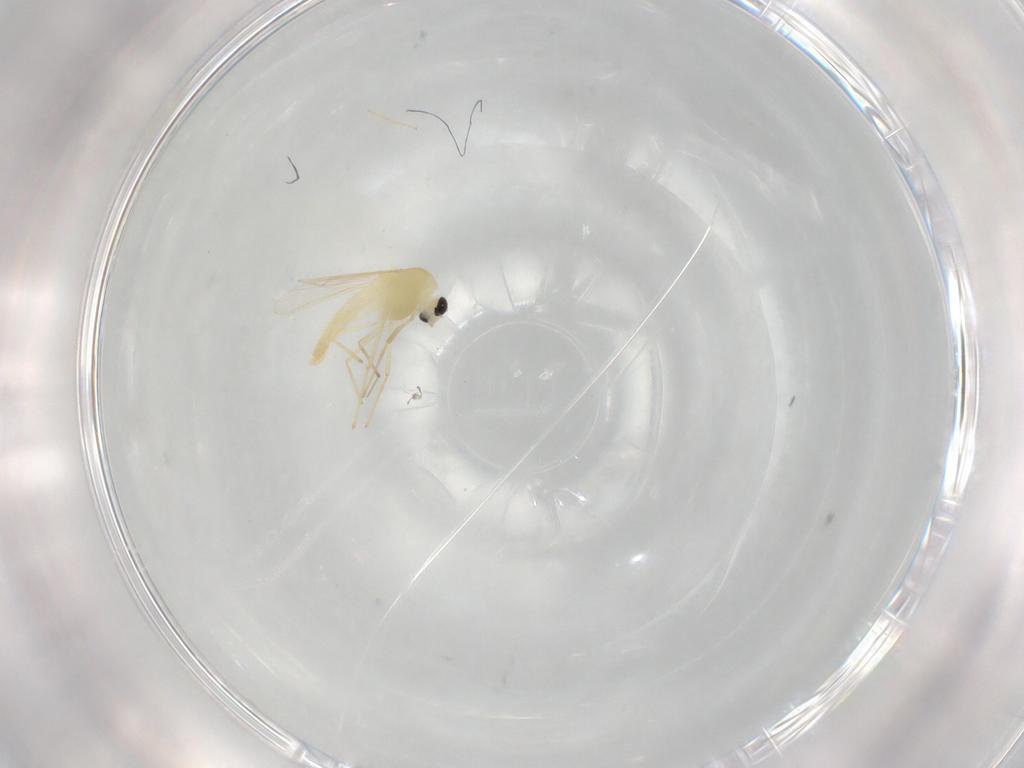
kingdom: Animalia
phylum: Arthropoda
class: Insecta
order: Diptera
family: Chironomidae
